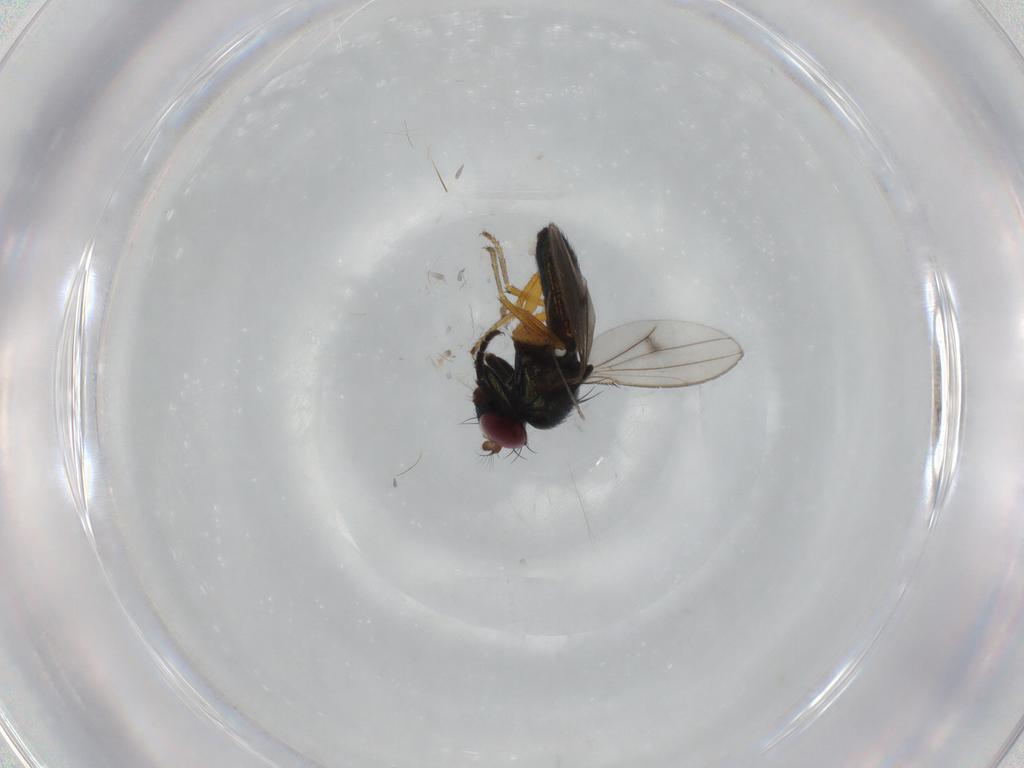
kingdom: Animalia
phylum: Arthropoda
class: Insecta
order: Diptera
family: Ephydridae
